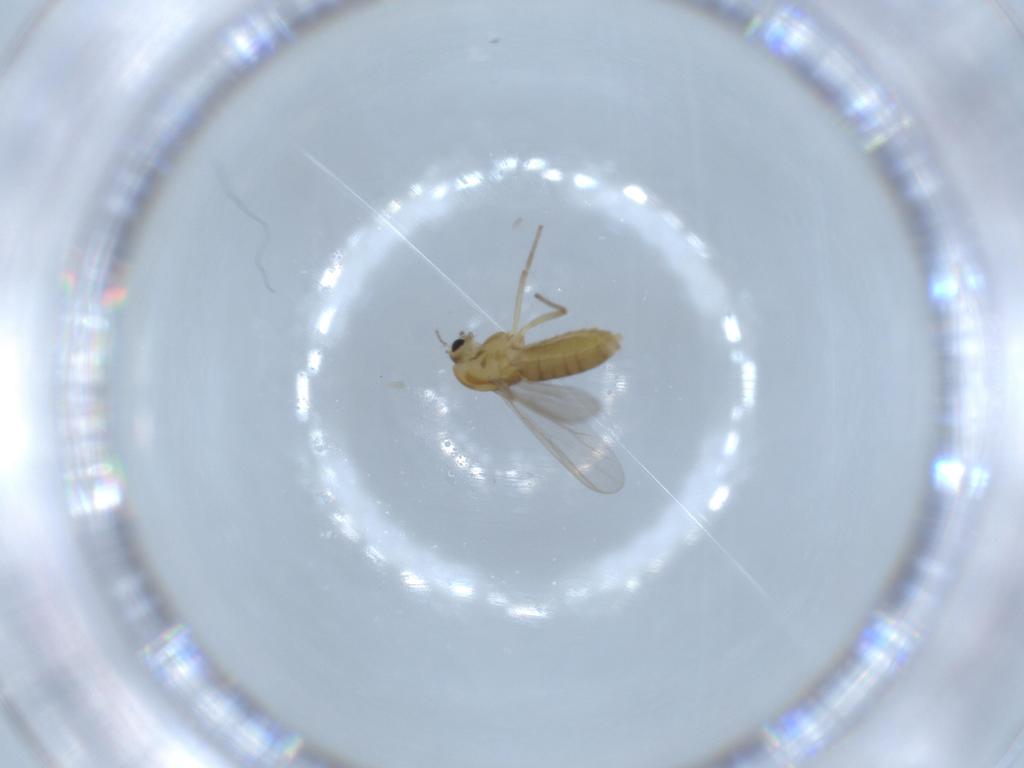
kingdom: Animalia
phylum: Arthropoda
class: Insecta
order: Diptera
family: Chironomidae
